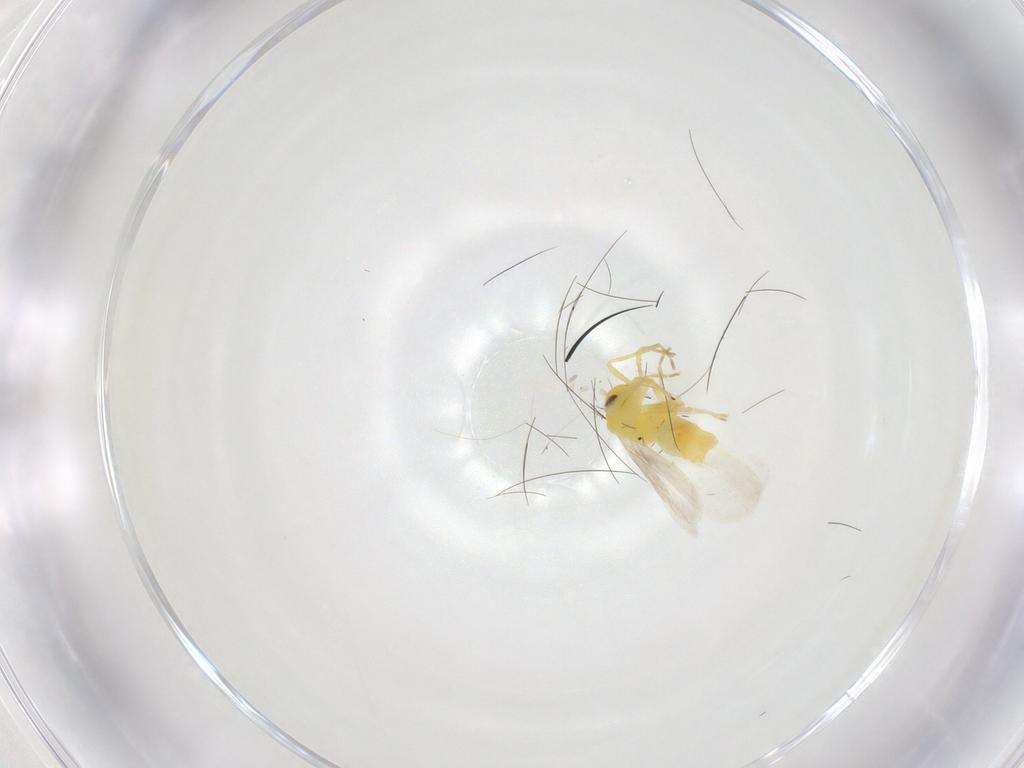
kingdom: Animalia
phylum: Arthropoda
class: Insecta
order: Hemiptera
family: Aleyrodidae
